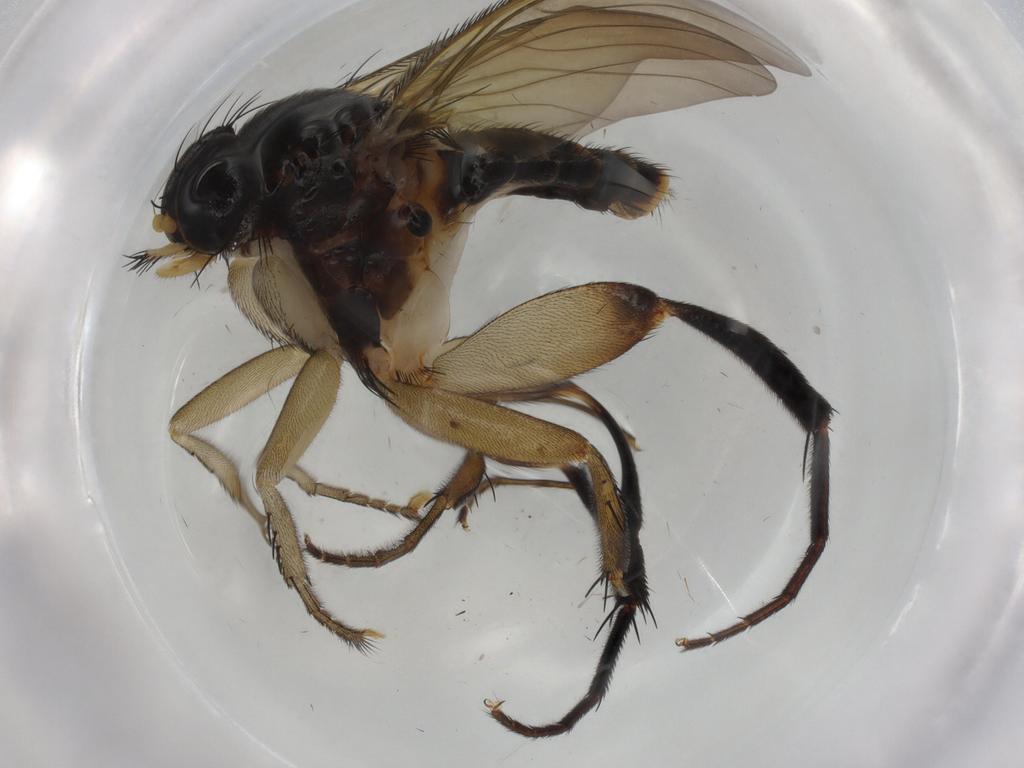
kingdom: Animalia
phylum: Arthropoda
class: Insecta
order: Diptera
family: Phoridae
